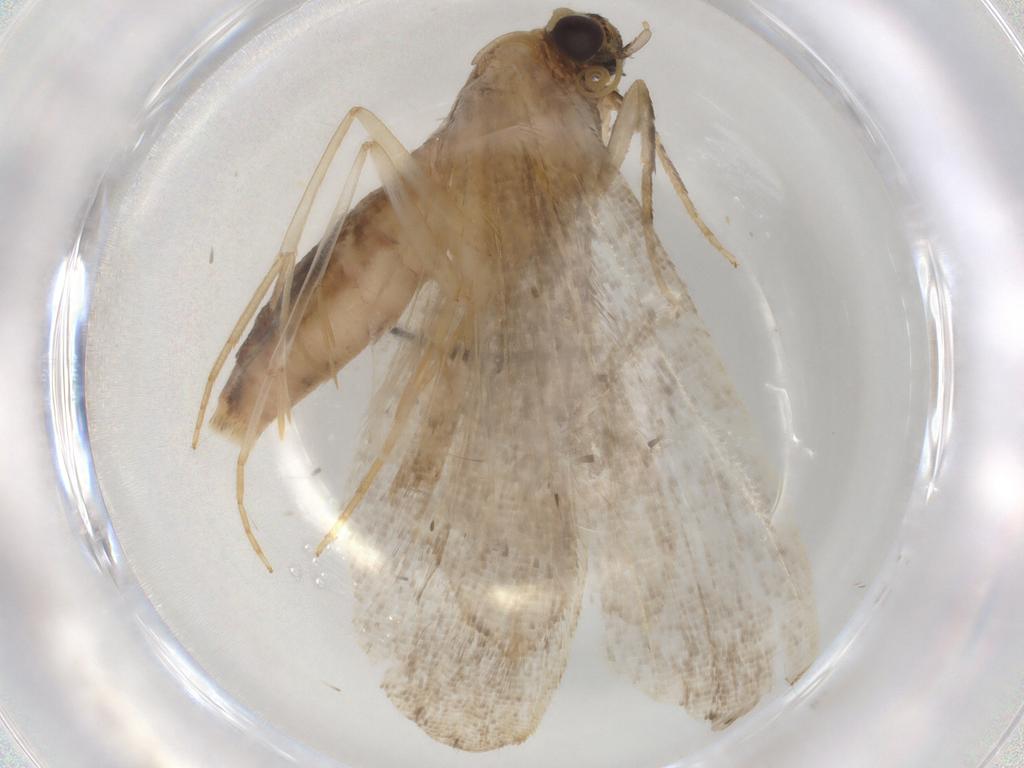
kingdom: Animalia
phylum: Arthropoda
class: Insecta
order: Lepidoptera
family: Noctuidae
